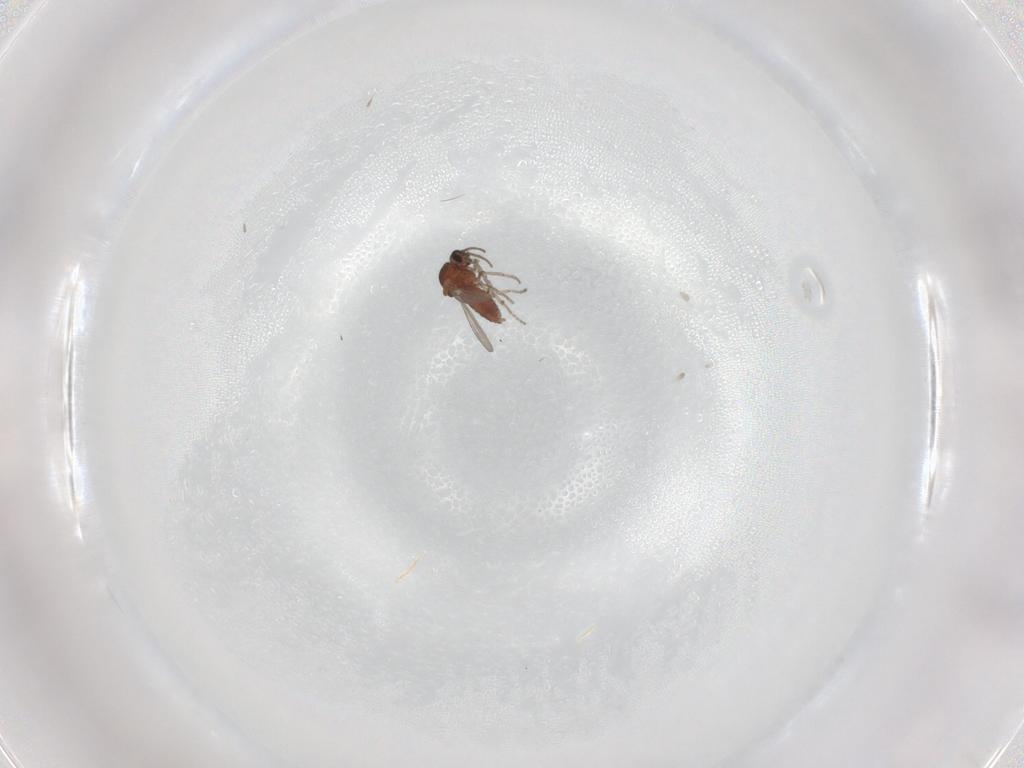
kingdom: Animalia
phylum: Arthropoda
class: Insecta
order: Diptera
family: Ceratopogonidae
